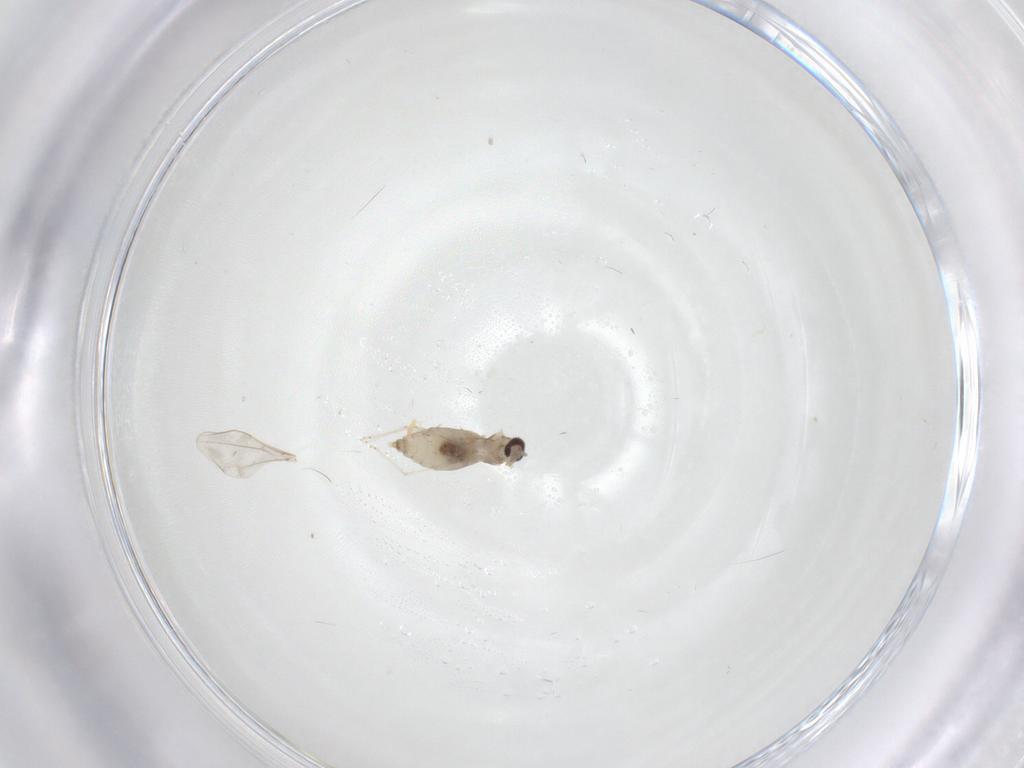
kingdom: Animalia
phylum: Arthropoda
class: Insecta
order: Diptera
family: Cecidomyiidae
